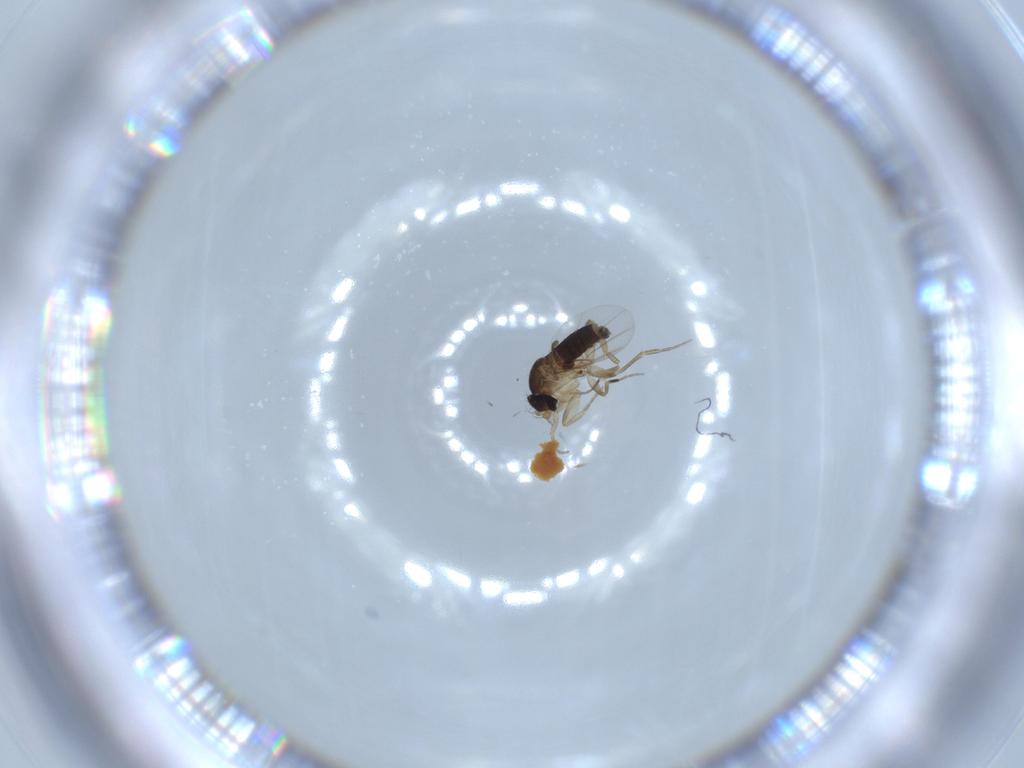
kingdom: Animalia
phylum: Arthropoda
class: Insecta
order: Diptera
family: Phoridae
